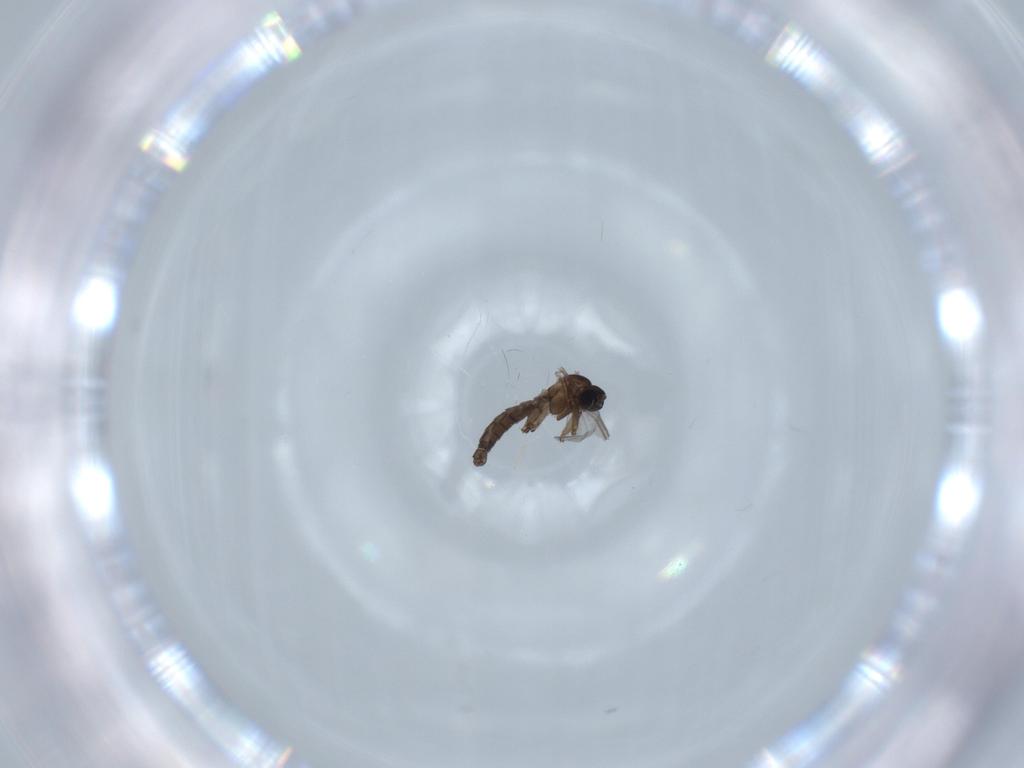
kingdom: Animalia
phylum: Arthropoda
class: Insecta
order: Diptera
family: Sciaridae
